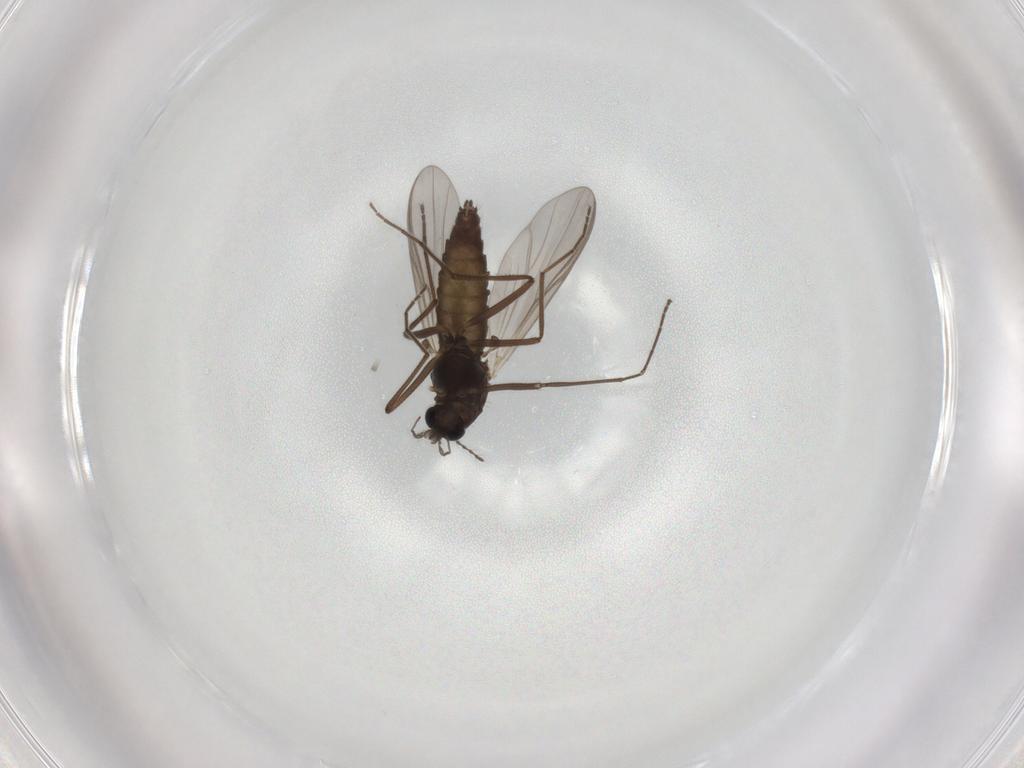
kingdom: Animalia
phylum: Arthropoda
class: Insecta
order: Diptera
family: Chironomidae
